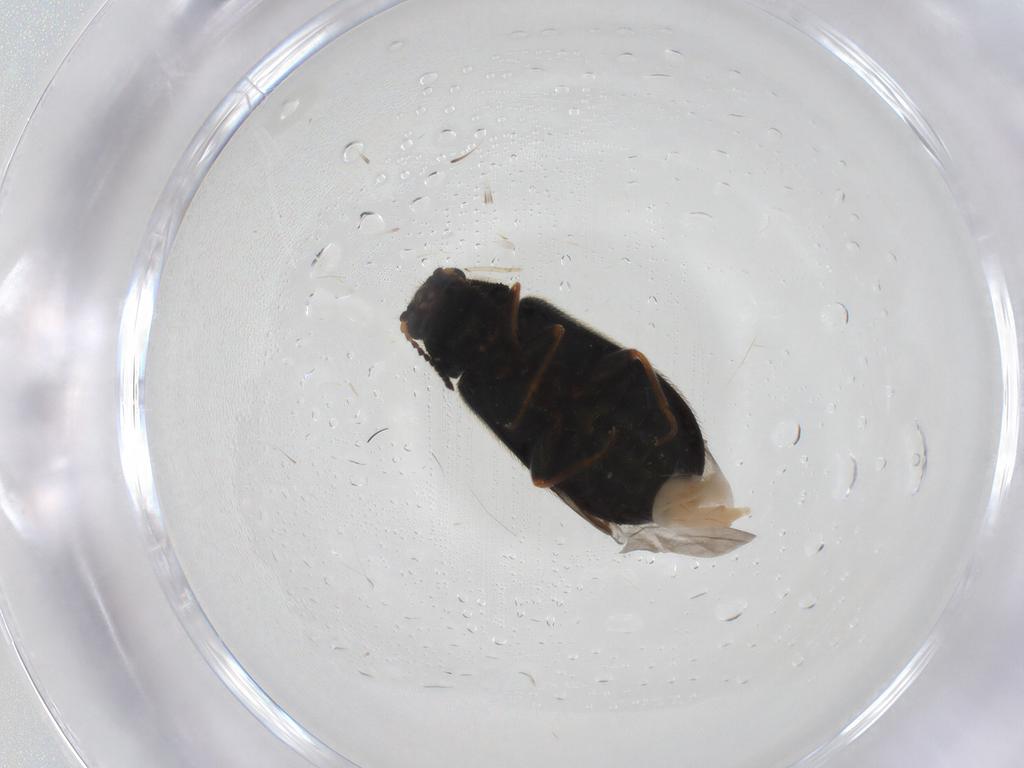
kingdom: Animalia
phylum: Arthropoda
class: Insecta
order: Coleoptera
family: Melyridae
